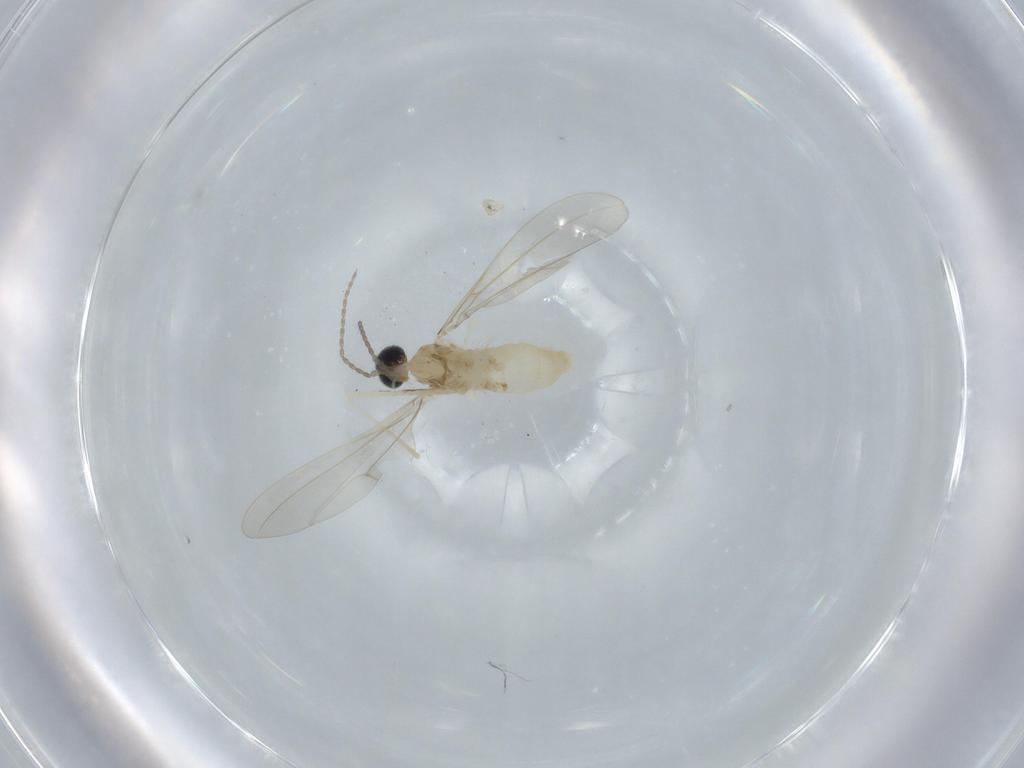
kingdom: Animalia
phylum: Arthropoda
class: Insecta
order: Diptera
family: Cecidomyiidae
